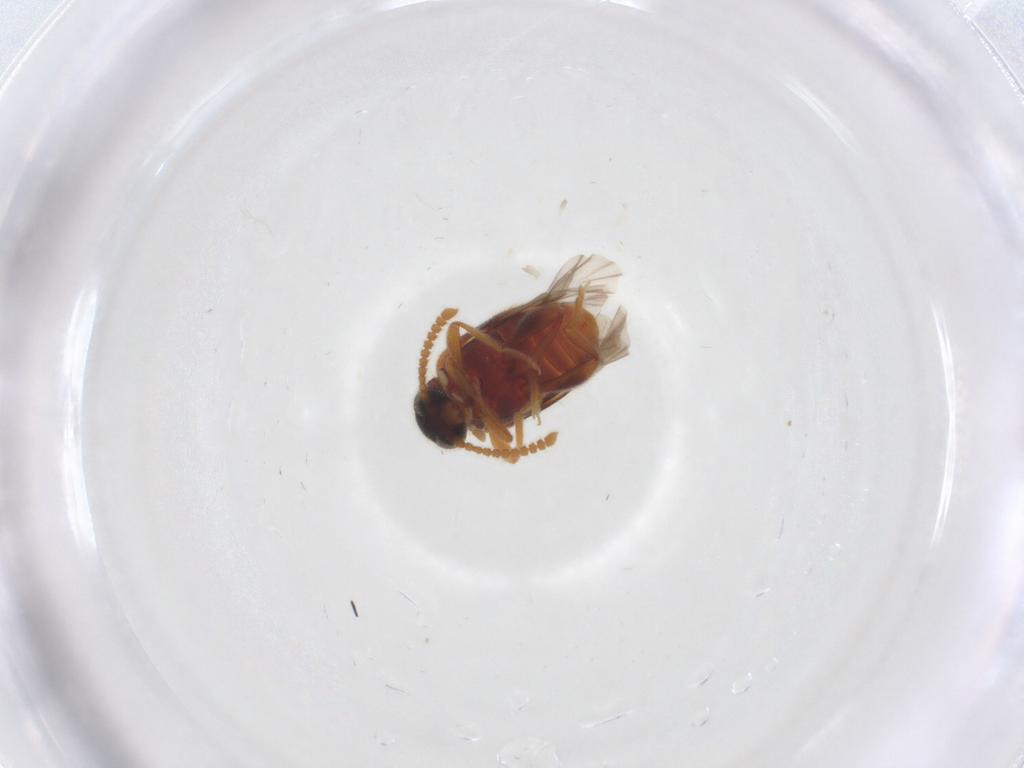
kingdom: Animalia
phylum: Arthropoda
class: Insecta
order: Coleoptera
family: Aderidae
